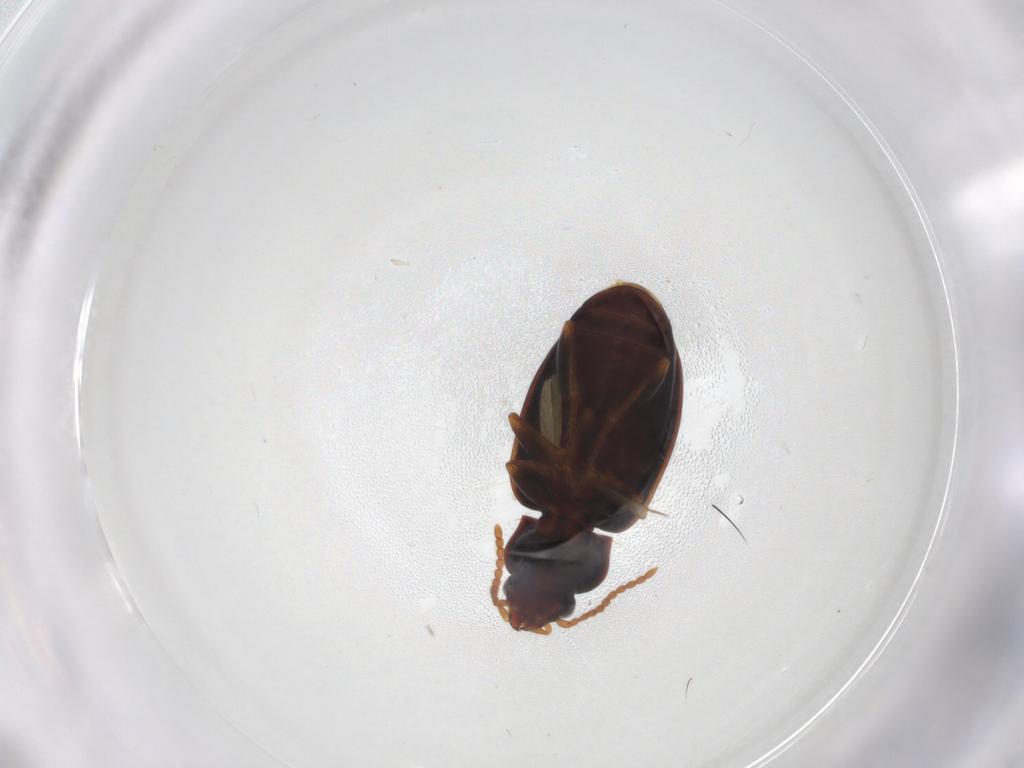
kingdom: Animalia
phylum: Arthropoda
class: Insecta
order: Coleoptera
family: Carabidae
